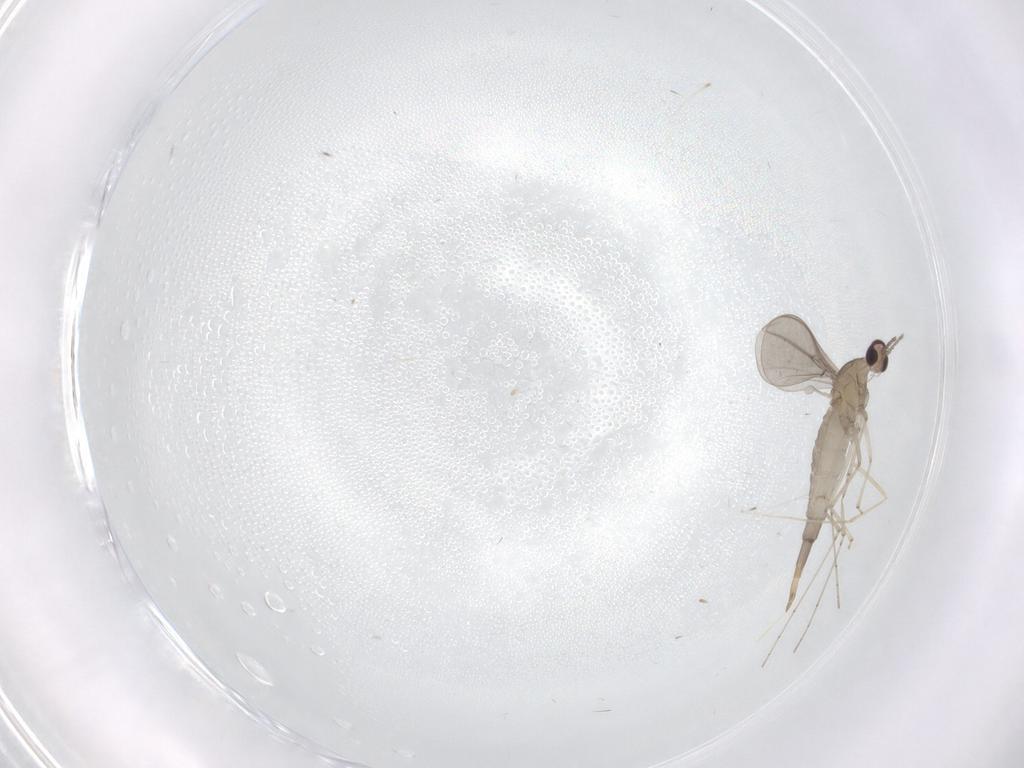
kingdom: Animalia
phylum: Arthropoda
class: Insecta
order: Diptera
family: Cecidomyiidae
